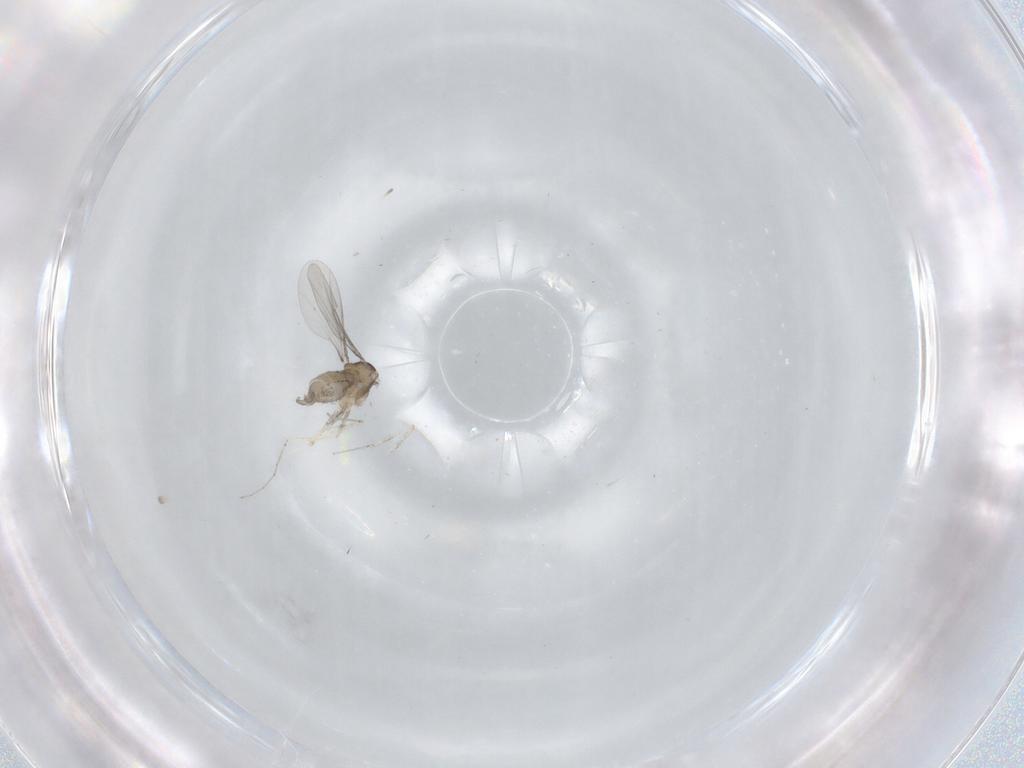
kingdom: Animalia
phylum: Arthropoda
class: Insecta
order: Diptera
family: Cecidomyiidae
